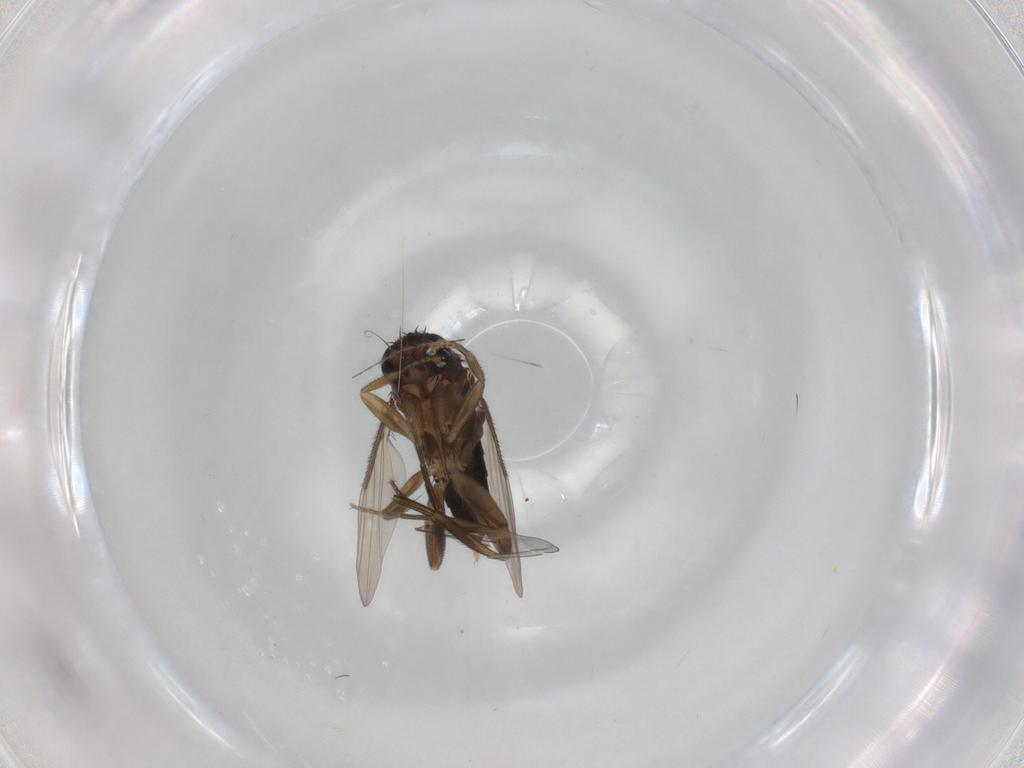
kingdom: Animalia
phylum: Arthropoda
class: Insecta
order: Diptera
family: Phoridae
